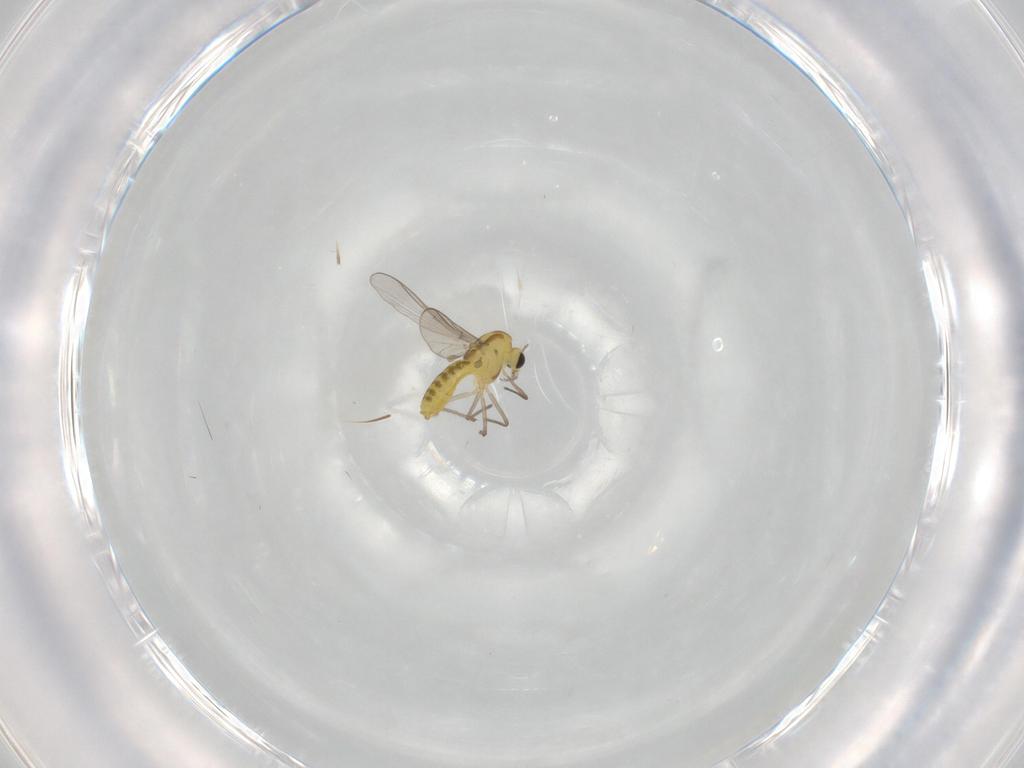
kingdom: Animalia
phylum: Arthropoda
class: Insecta
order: Diptera
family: Chironomidae
